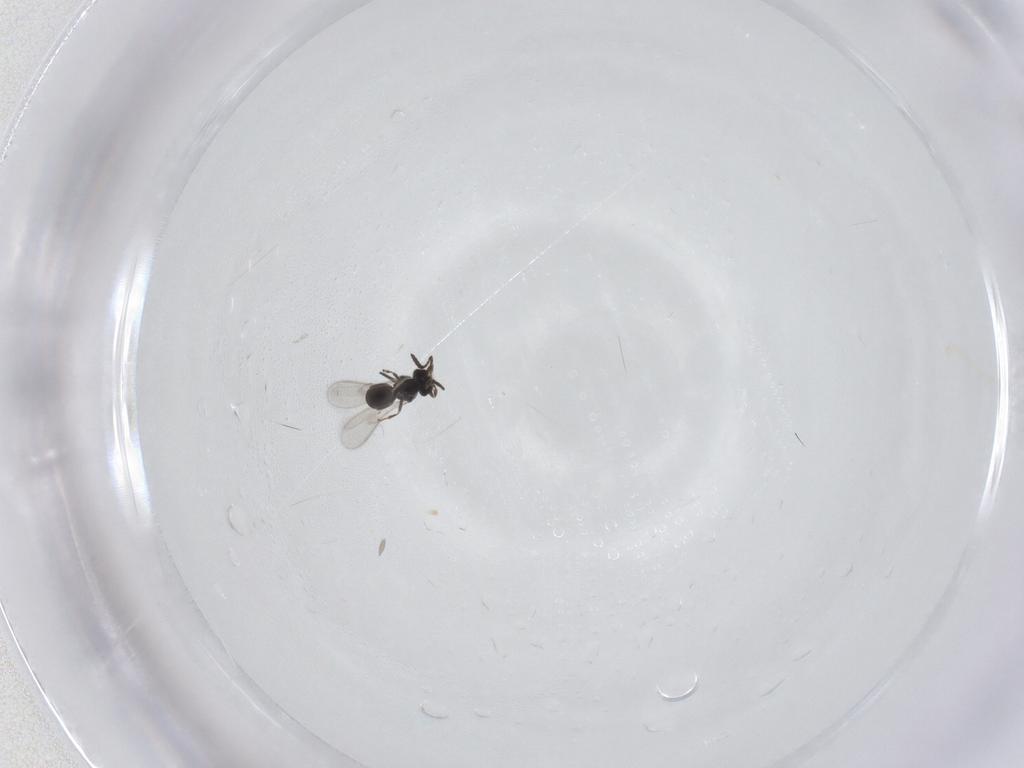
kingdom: Animalia
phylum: Arthropoda
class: Insecta
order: Hymenoptera
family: Scelionidae
